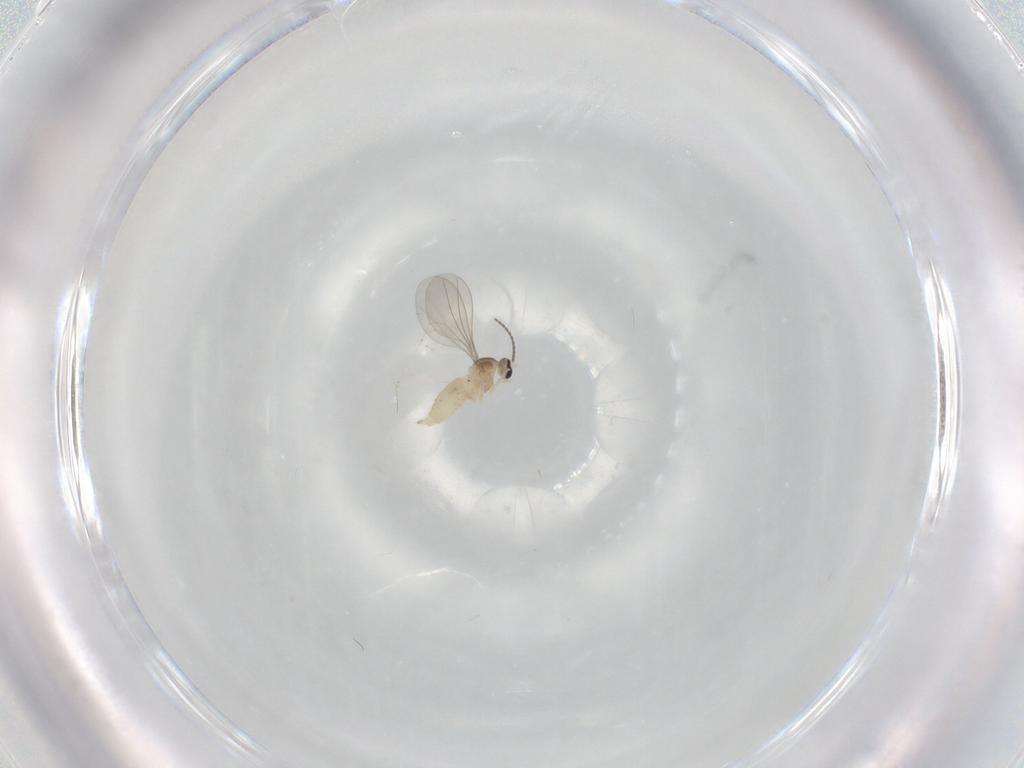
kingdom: Animalia
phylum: Arthropoda
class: Insecta
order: Diptera
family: Cecidomyiidae
